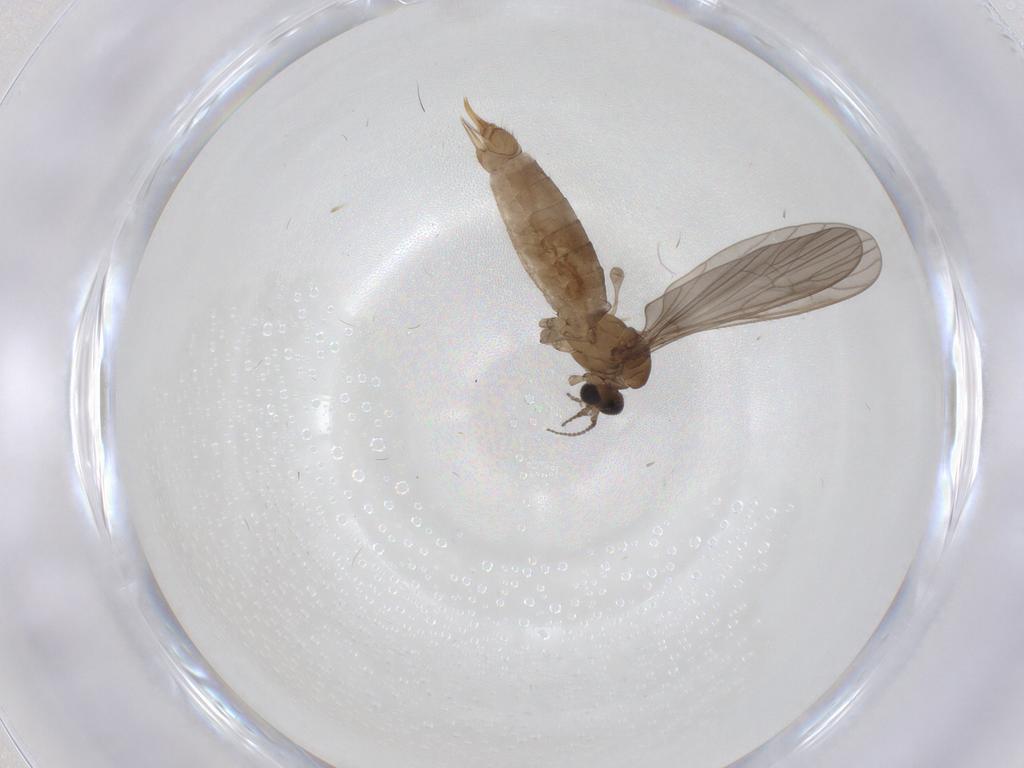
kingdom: Animalia
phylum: Arthropoda
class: Insecta
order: Diptera
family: Limoniidae
